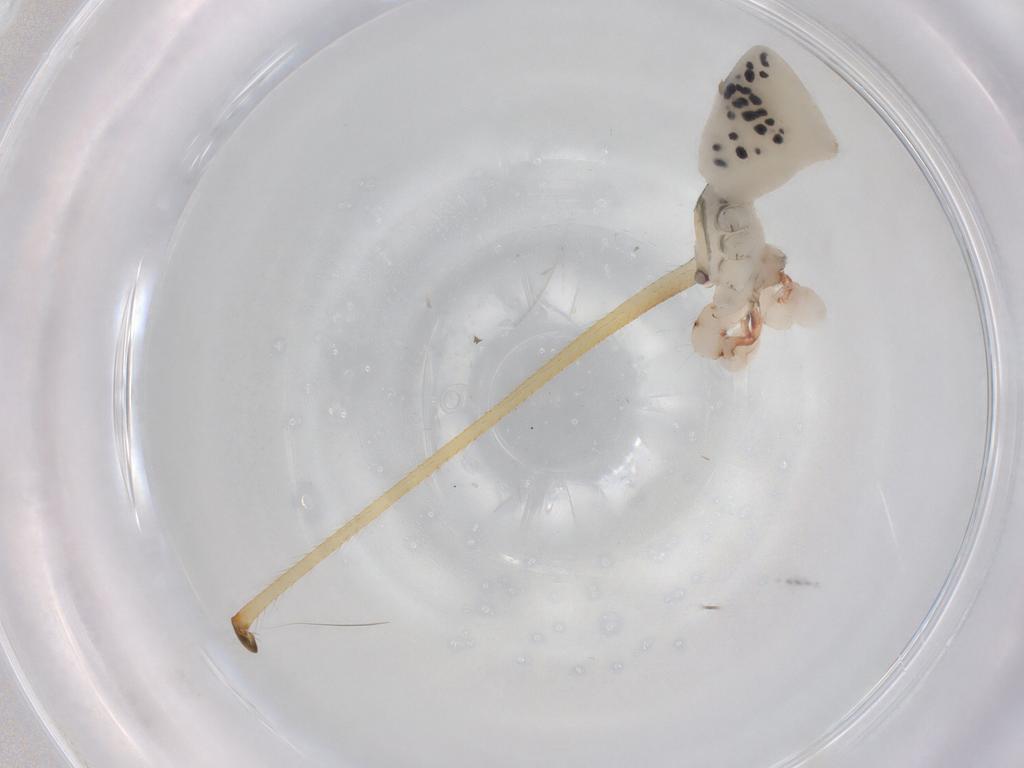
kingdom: Animalia
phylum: Arthropoda
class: Arachnida
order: Araneae
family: Pholcidae
